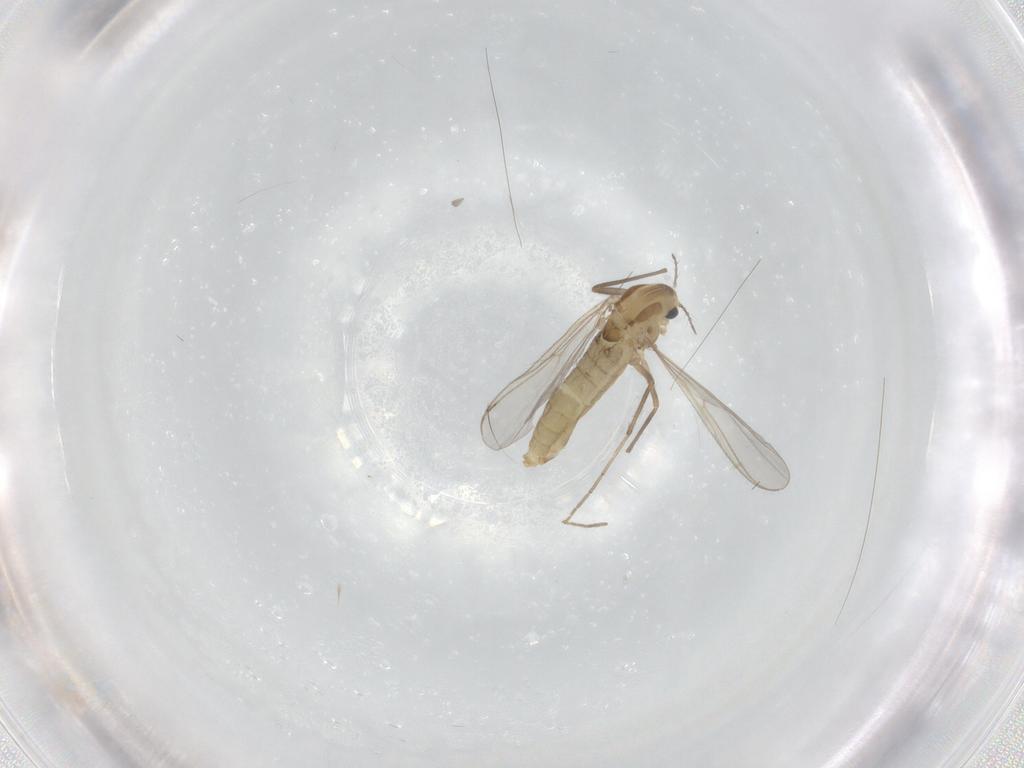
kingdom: Animalia
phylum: Arthropoda
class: Insecta
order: Diptera
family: Chironomidae
